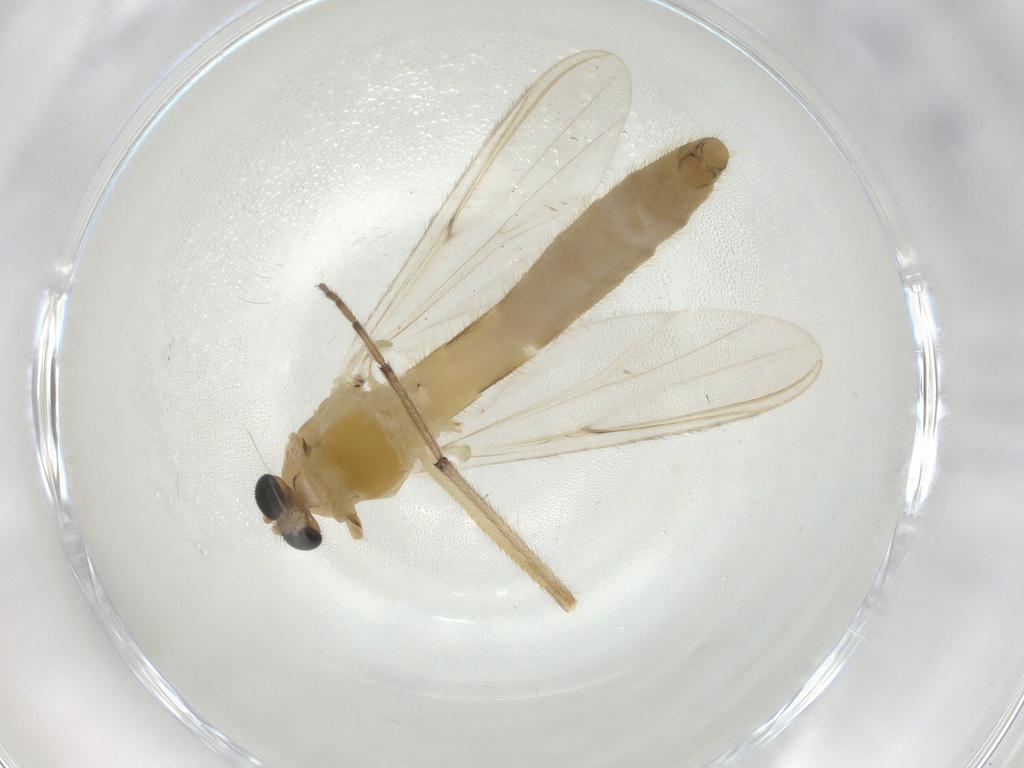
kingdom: Animalia
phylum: Arthropoda
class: Insecta
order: Diptera
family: Chironomidae
